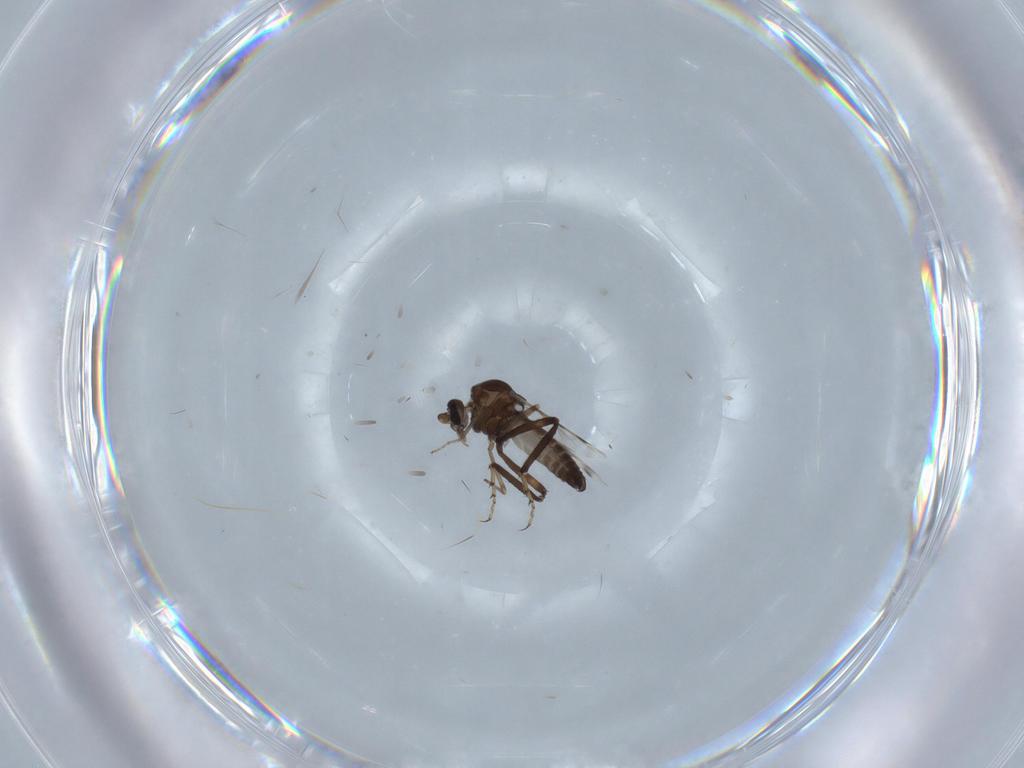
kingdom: Animalia
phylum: Arthropoda
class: Insecta
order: Diptera
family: Ceratopogonidae
